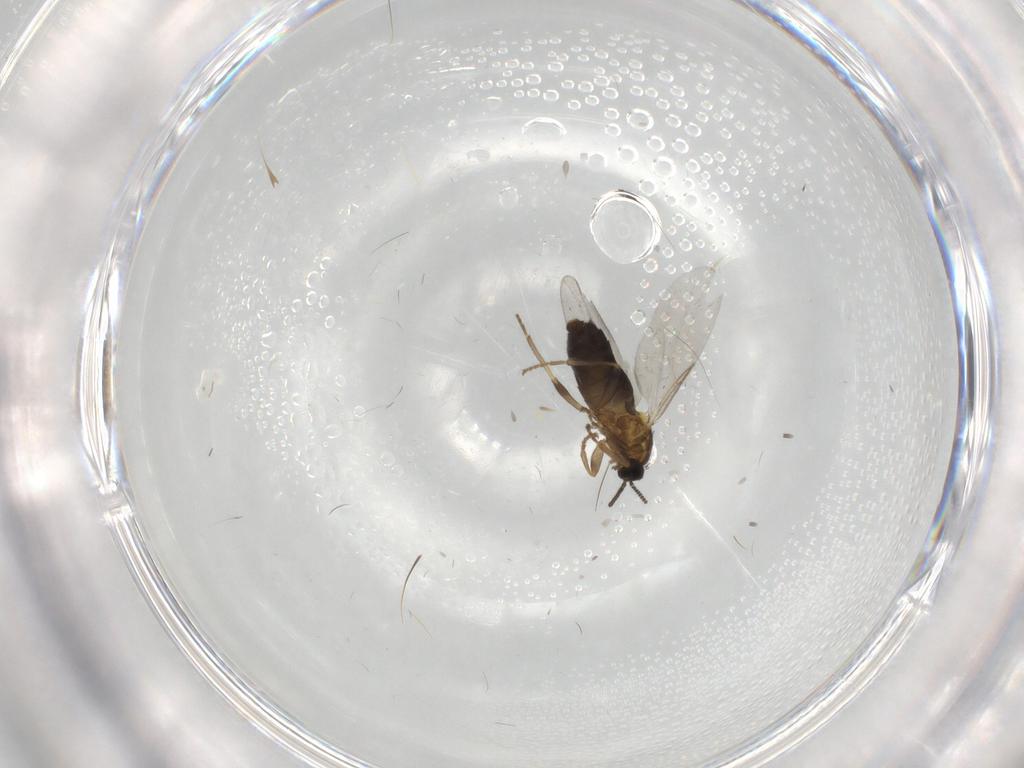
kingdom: Animalia
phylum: Arthropoda
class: Insecta
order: Diptera
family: Scatopsidae
